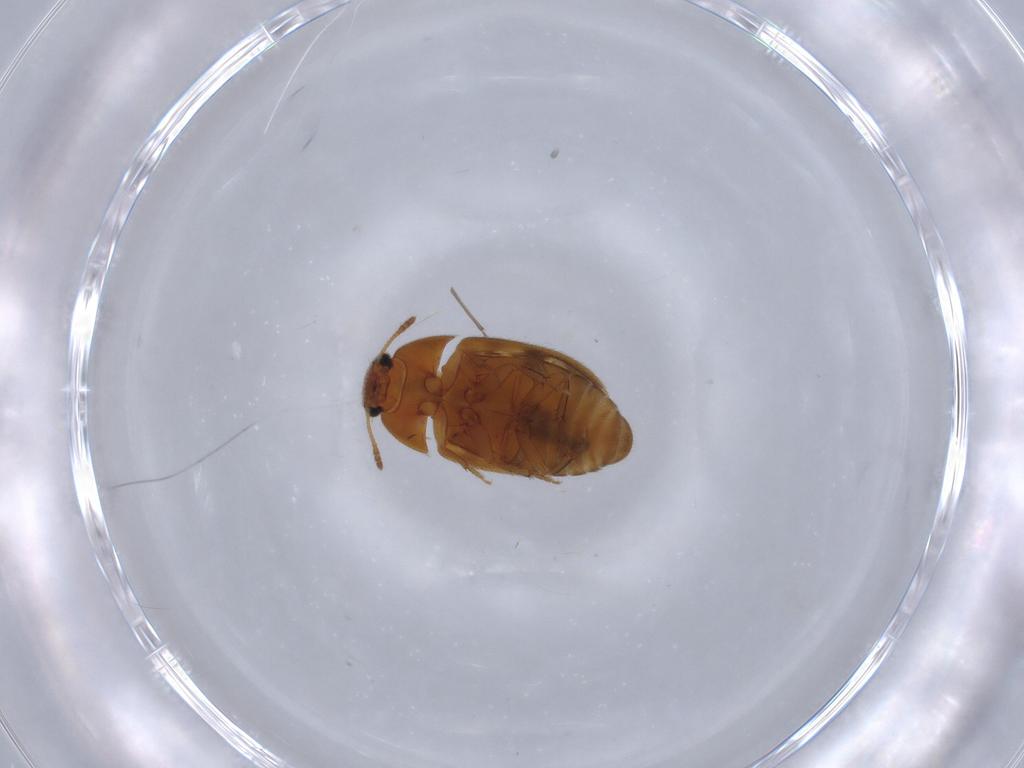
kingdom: Animalia
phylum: Arthropoda
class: Insecta
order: Coleoptera
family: Mycetophagidae
